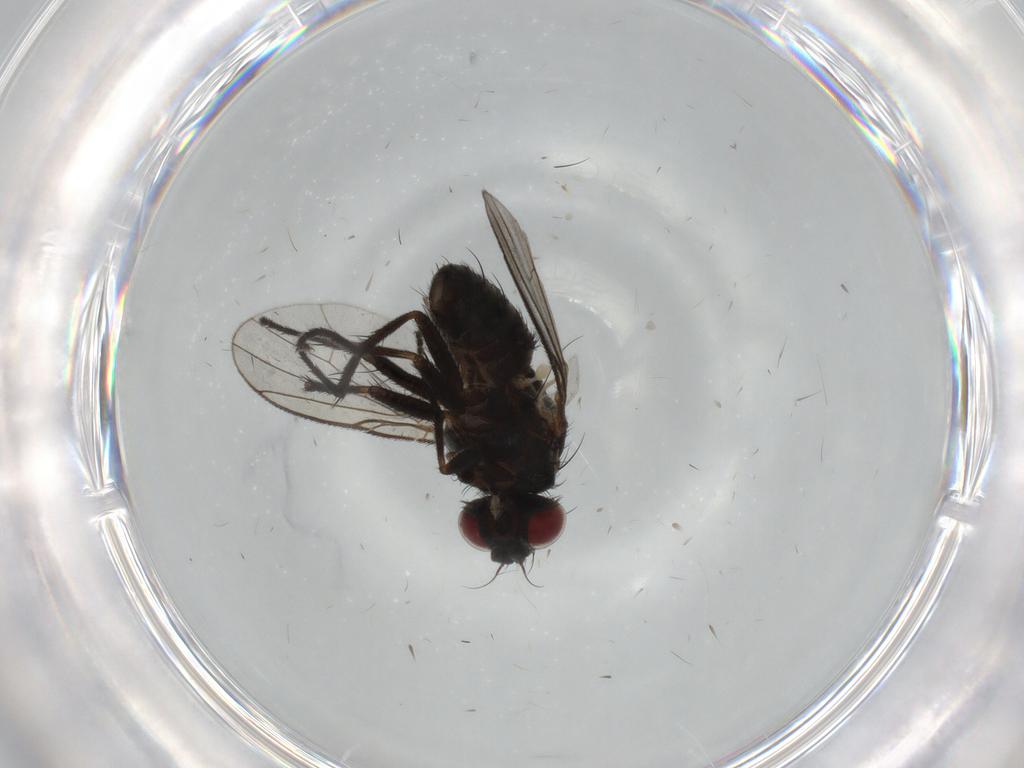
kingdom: Animalia
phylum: Arthropoda
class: Insecta
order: Diptera
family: Muscidae
